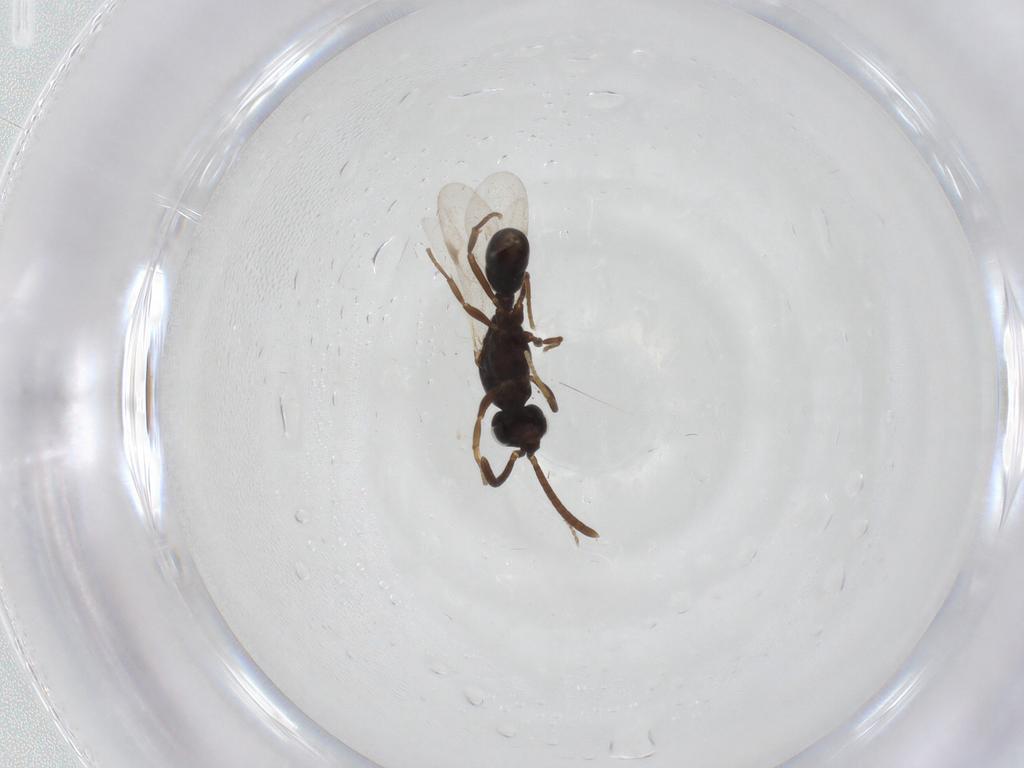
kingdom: Animalia
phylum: Arthropoda
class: Insecta
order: Hymenoptera
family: Formicidae
